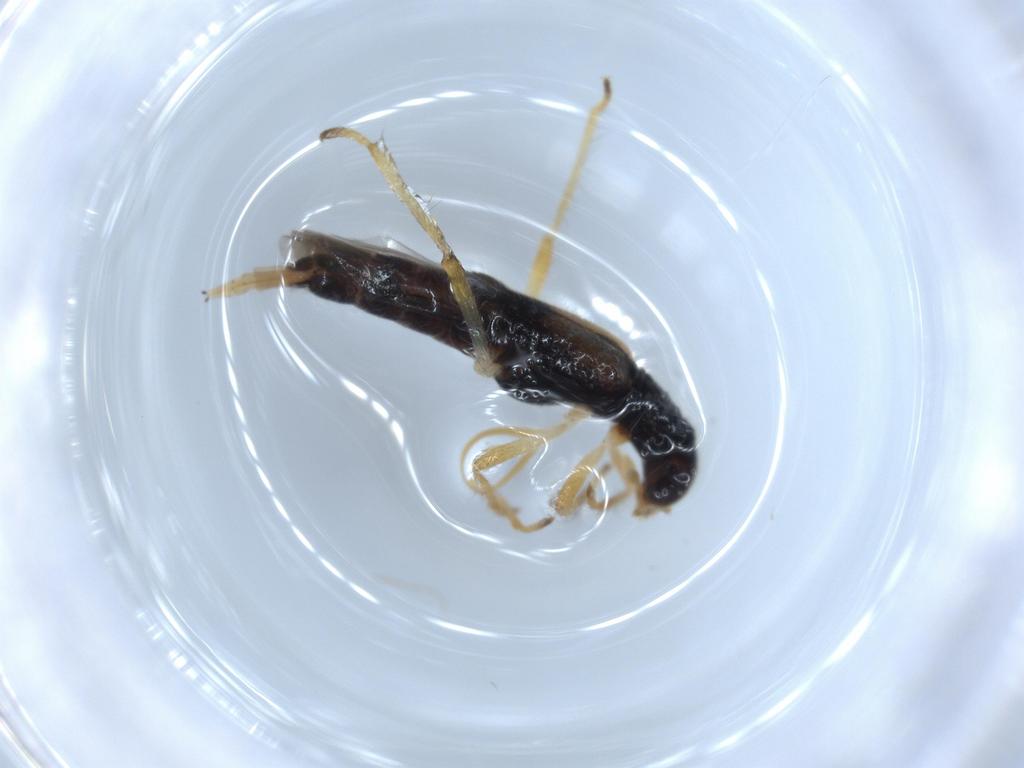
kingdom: Animalia
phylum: Arthropoda
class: Insecta
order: Coleoptera
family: Cleridae
